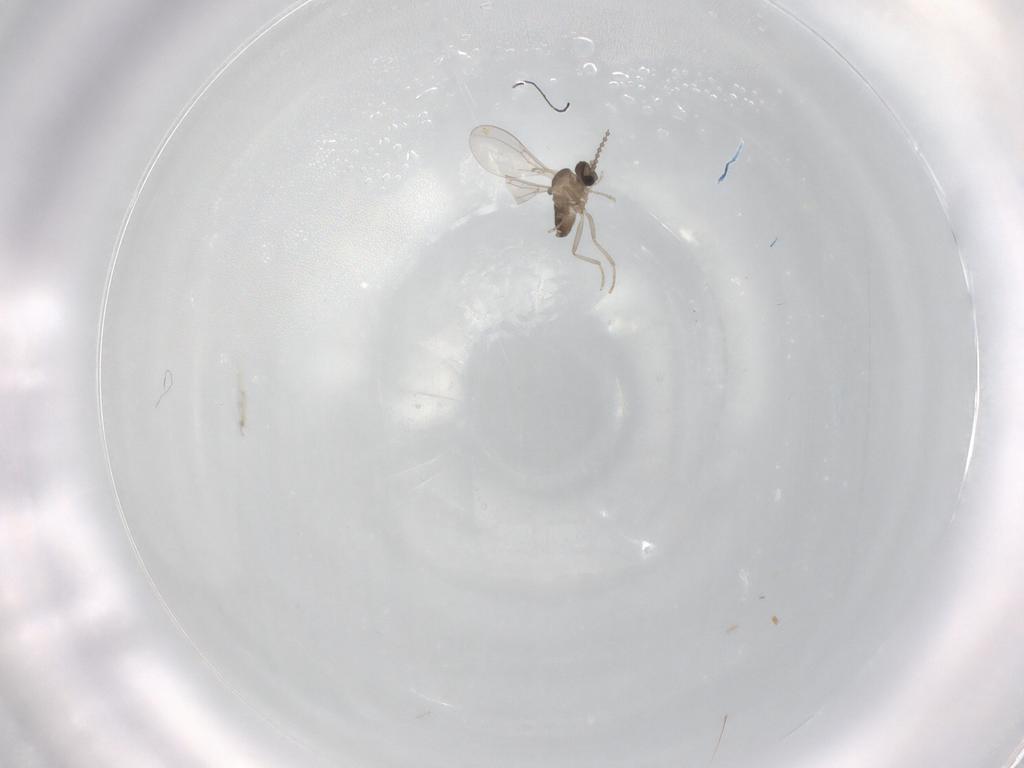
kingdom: Animalia
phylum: Arthropoda
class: Insecta
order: Diptera
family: Cecidomyiidae
